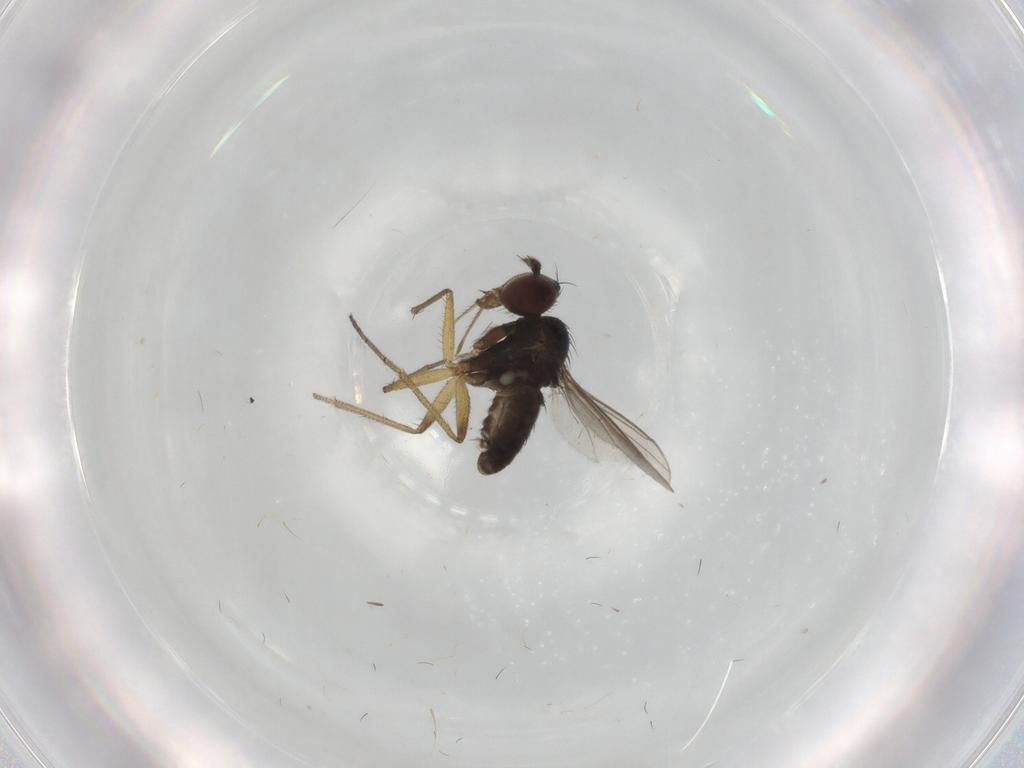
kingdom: Animalia
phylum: Arthropoda
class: Insecta
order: Diptera
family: Dolichopodidae
